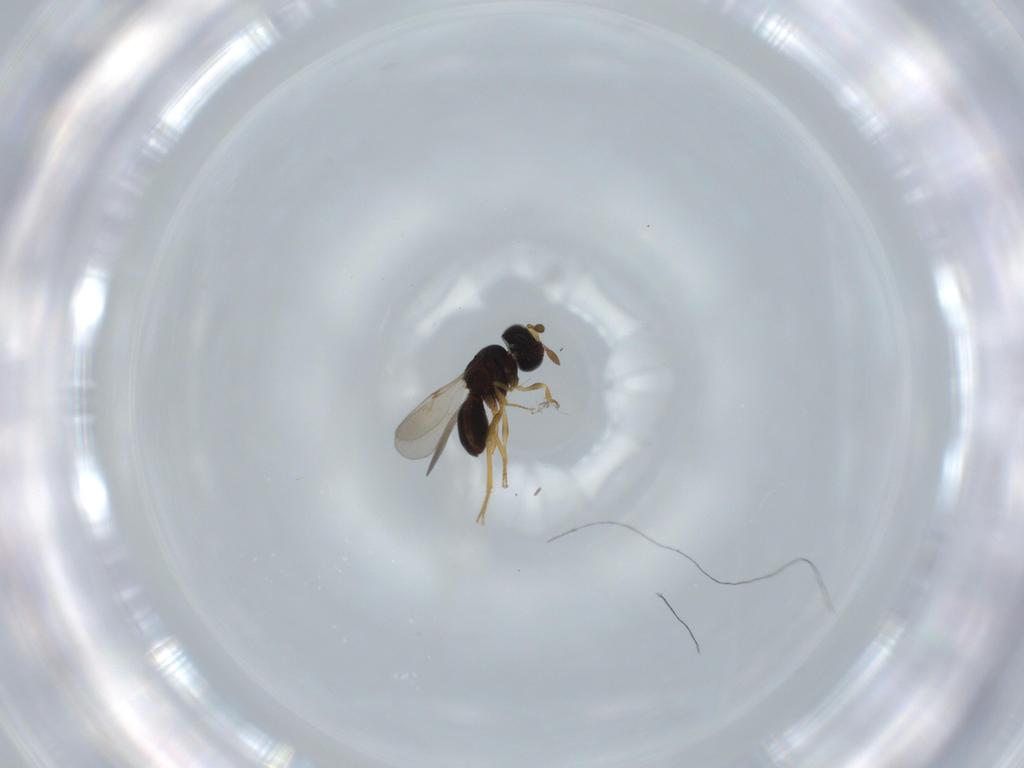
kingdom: Animalia
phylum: Arthropoda
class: Insecta
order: Hymenoptera
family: Scelionidae
